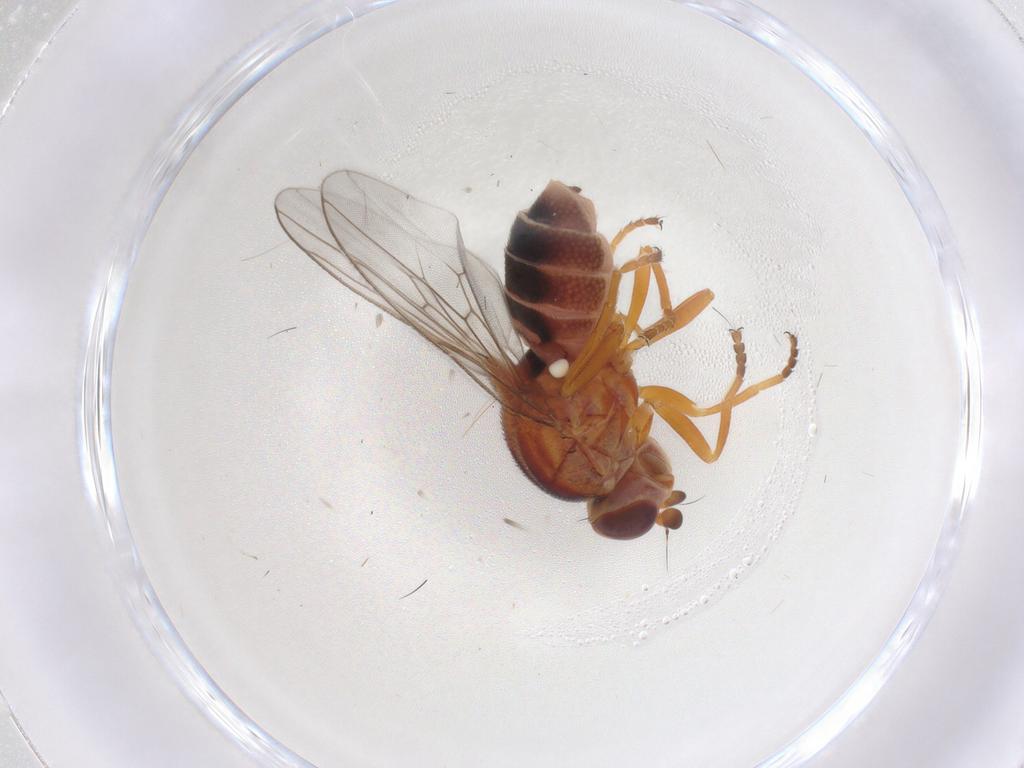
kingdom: Animalia
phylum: Arthropoda
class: Insecta
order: Diptera
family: Chloropidae
